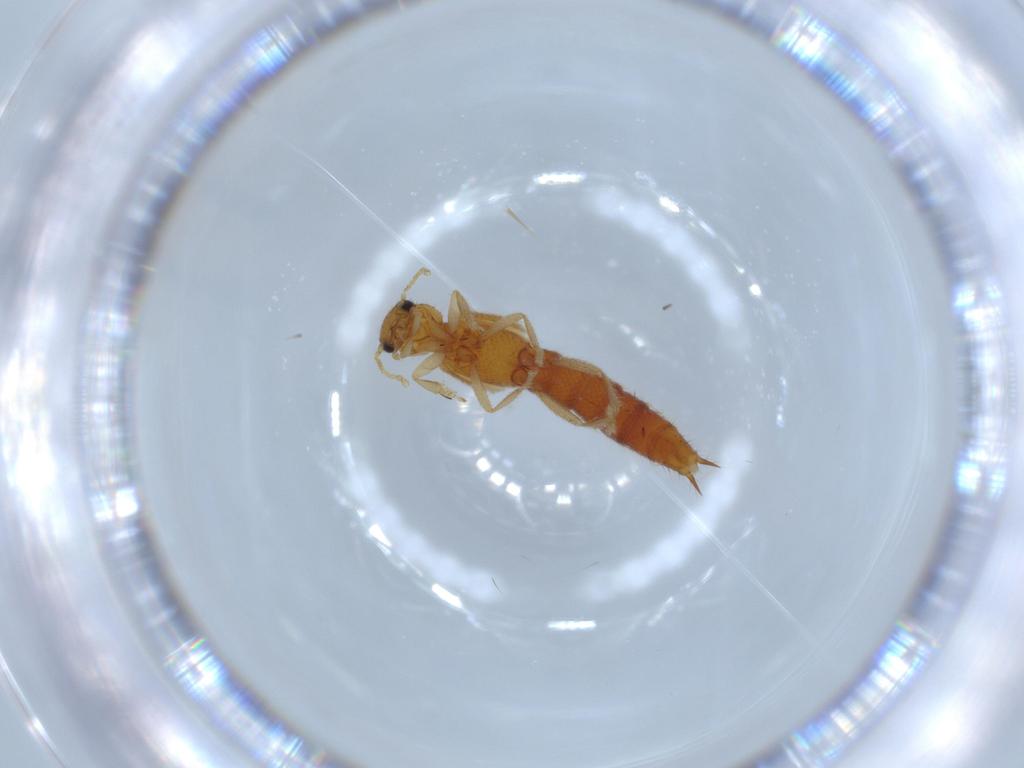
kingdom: Animalia
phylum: Arthropoda
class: Insecta
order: Coleoptera
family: Staphylinidae
